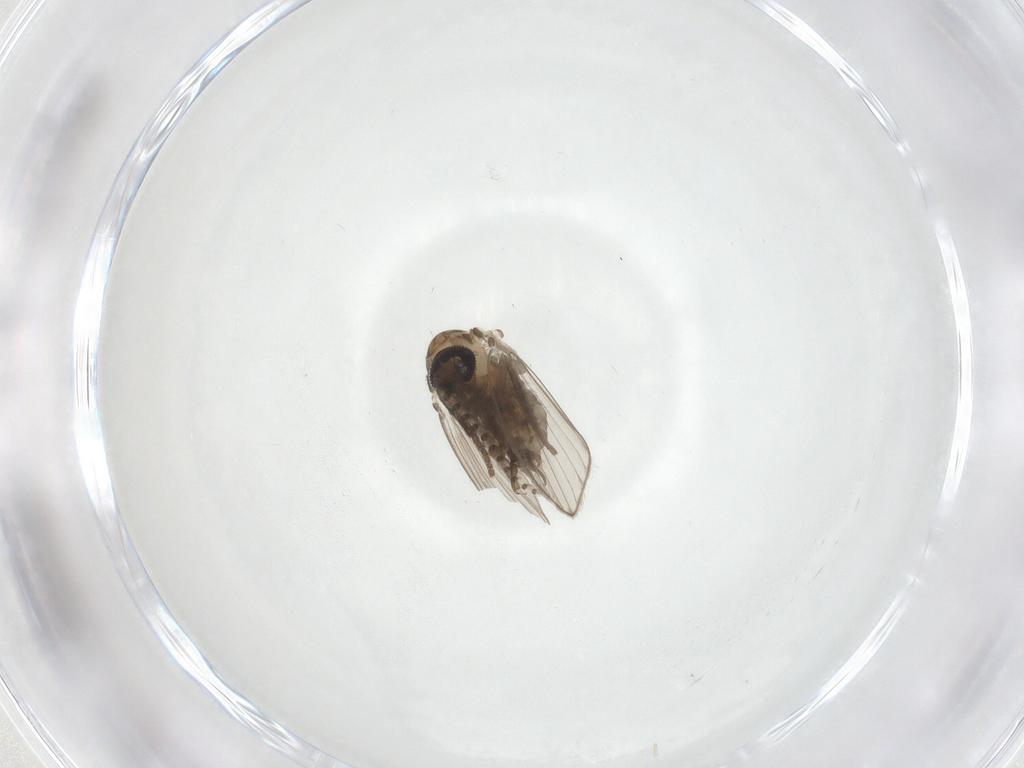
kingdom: Animalia
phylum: Arthropoda
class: Insecta
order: Diptera
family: Psychodidae
